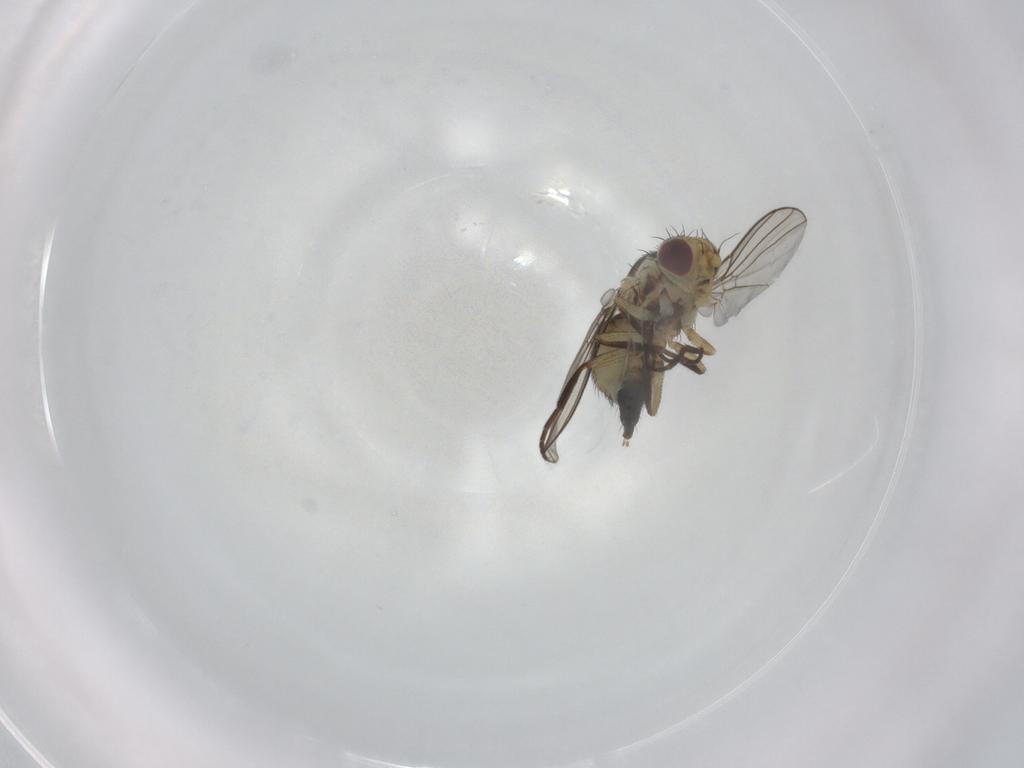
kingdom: Animalia
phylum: Arthropoda
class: Insecta
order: Diptera
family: Agromyzidae
